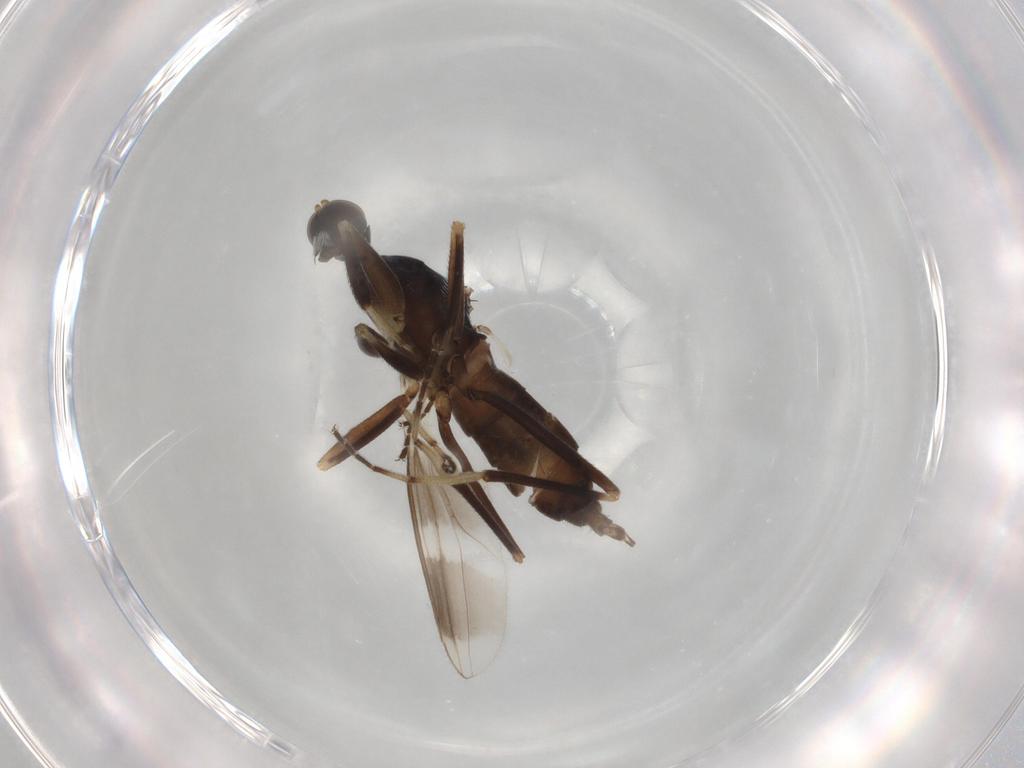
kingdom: Animalia
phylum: Arthropoda
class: Insecta
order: Diptera
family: Hybotidae
